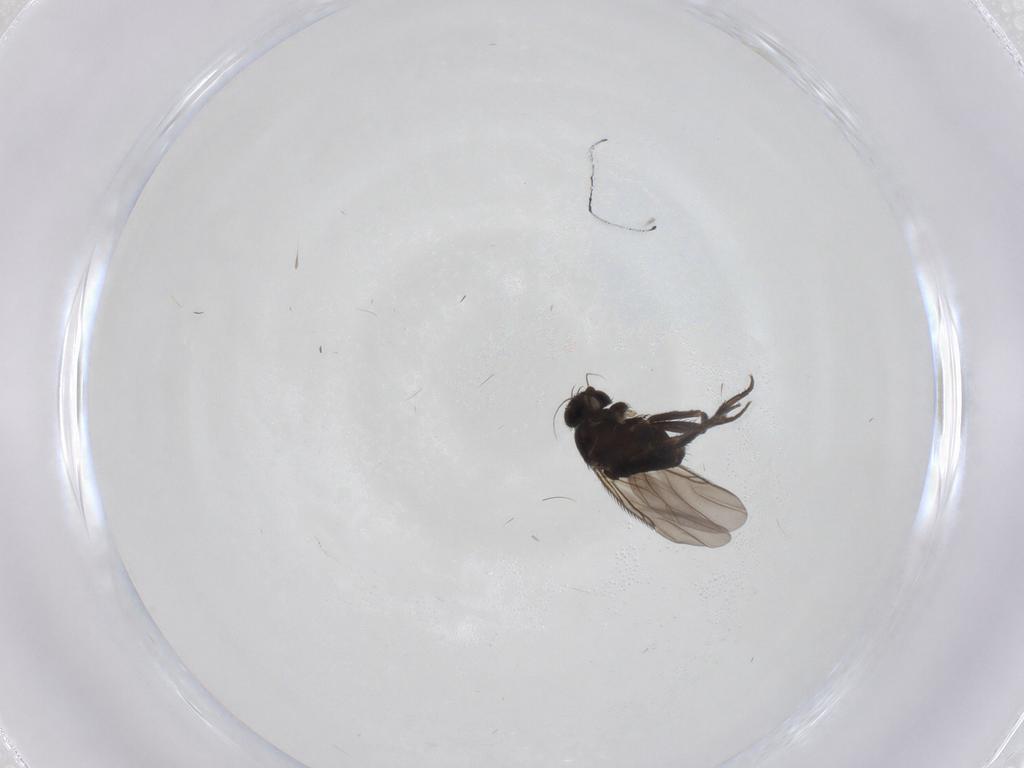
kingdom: Animalia
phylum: Arthropoda
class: Insecta
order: Diptera
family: Phoridae
